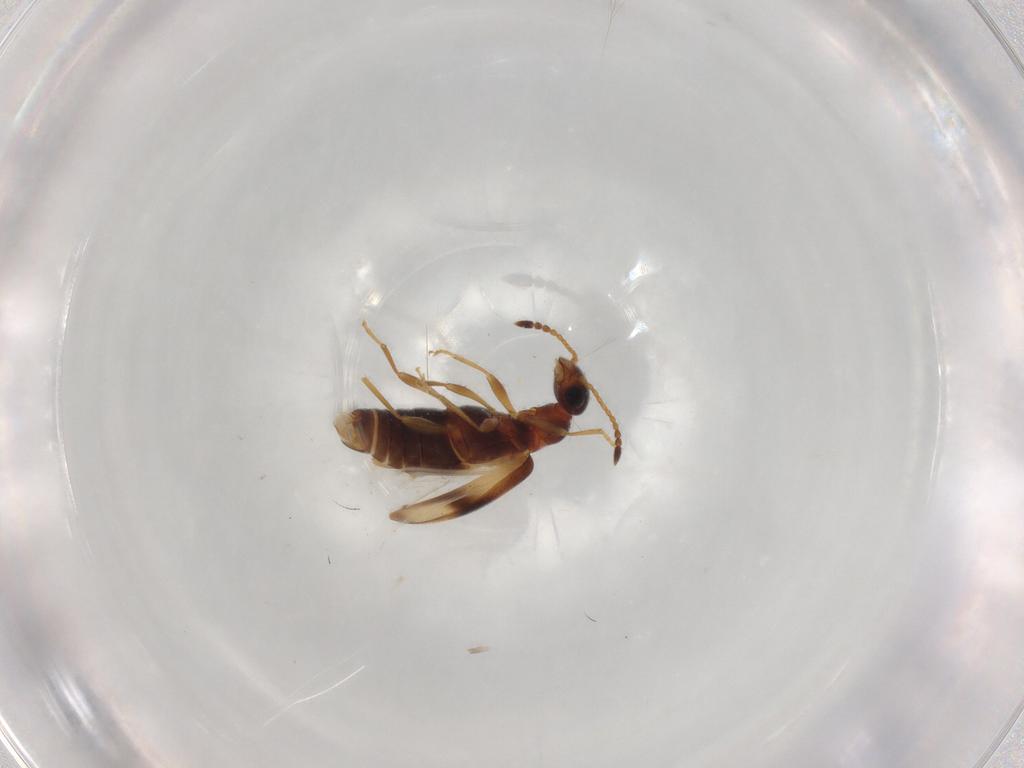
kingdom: Animalia
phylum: Arthropoda
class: Insecta
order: Coleoptera
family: Anthicidae
